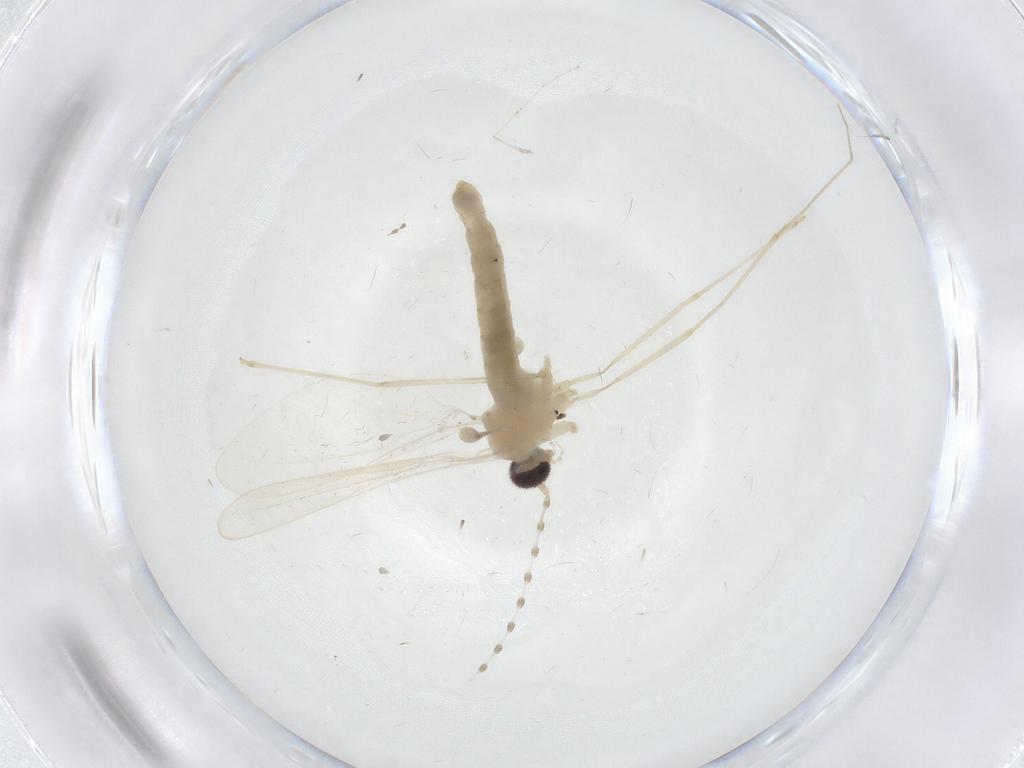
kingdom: Animalia
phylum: Arthropoda
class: Insecta
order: Diptera
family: Cecidomyiidae
